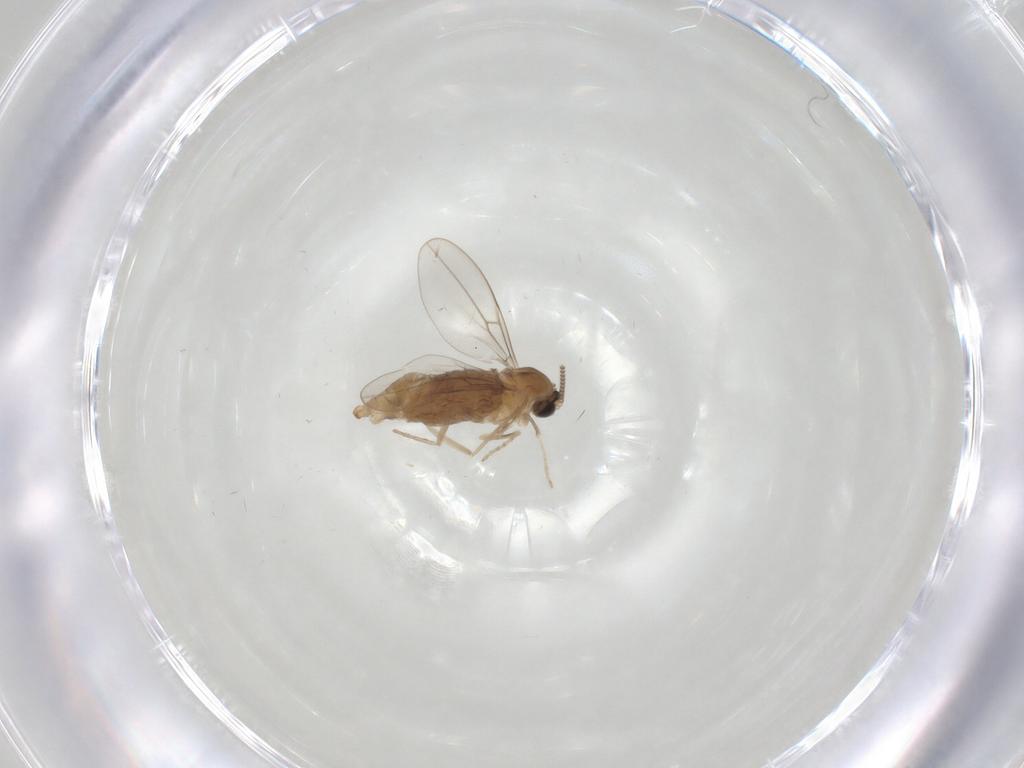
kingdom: Animalia
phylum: Arthropoda
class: Insecta
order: Diptera
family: Cecidomyiidae
